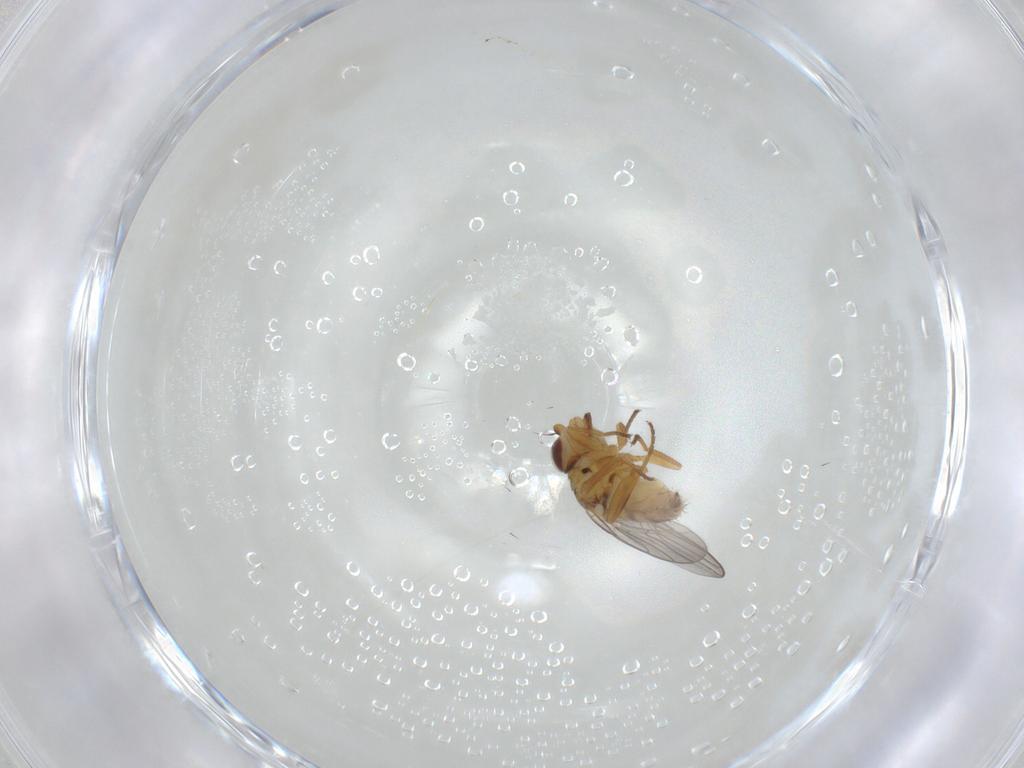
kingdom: Animalia
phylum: Arthropoda
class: Insecta
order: Diptera
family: Chloropidae
